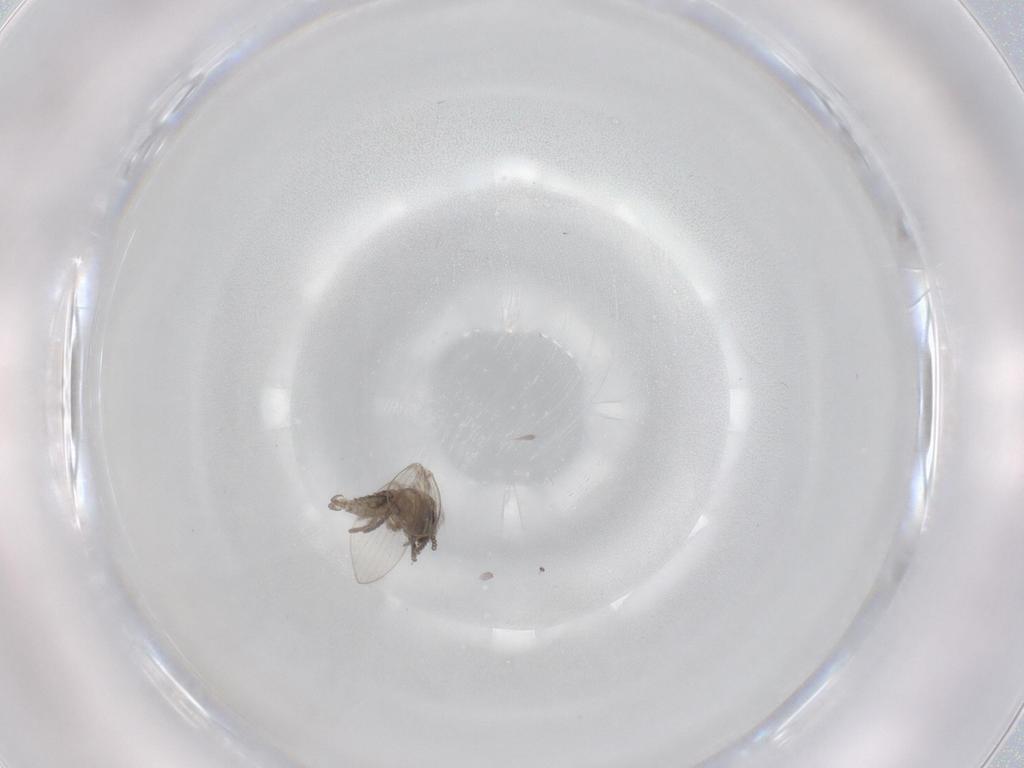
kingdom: Animalia
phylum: Arthropoda
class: Insecta
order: Diptera
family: Psychodidae
